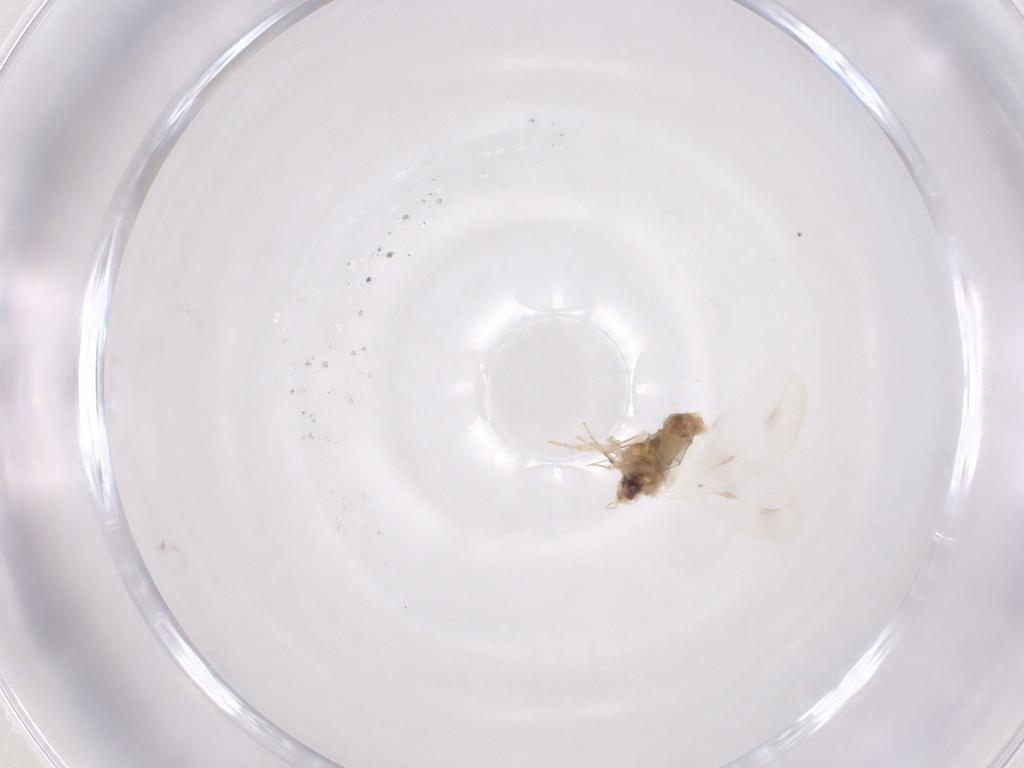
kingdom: Animalia
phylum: Arthropoda
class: Insecta
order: Hemiptera
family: Aleyrodidae
